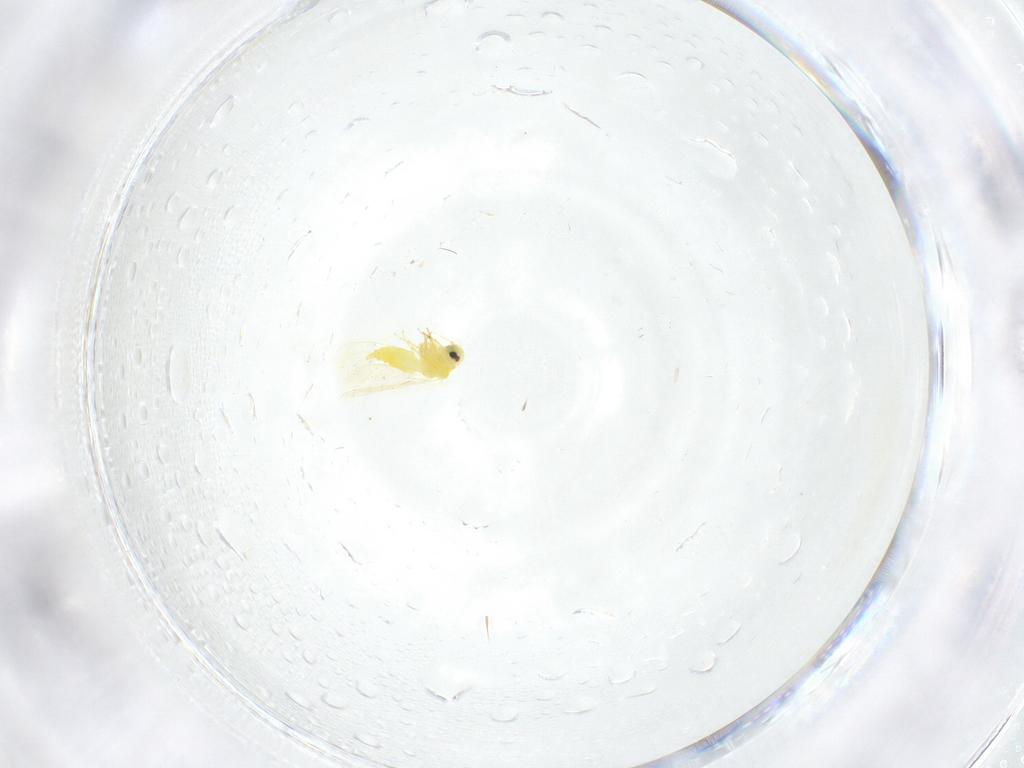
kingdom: Animalia
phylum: Arthropoda
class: Insecta
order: Hemiptera
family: Aleyrodidae
